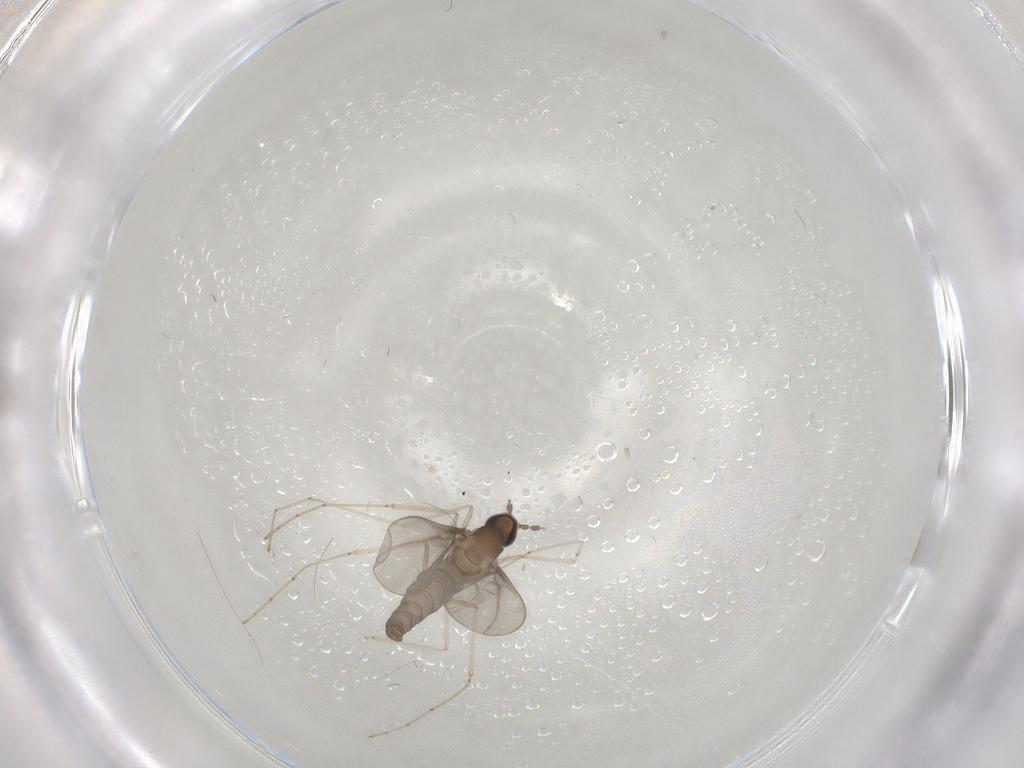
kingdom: Animalia
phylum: Arthropoda
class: Insecta
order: Diptera
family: Cecidomyiidae
